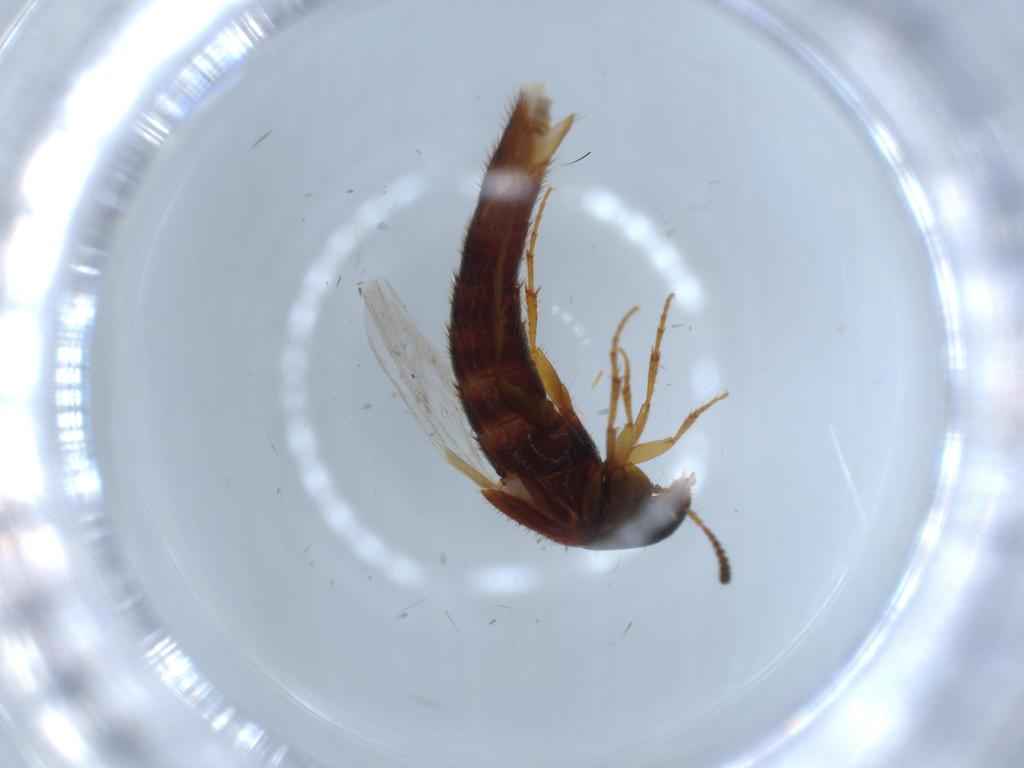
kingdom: Animalia
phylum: Arthropoda
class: Insecta
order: Coleoptera
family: Staphylinidae
